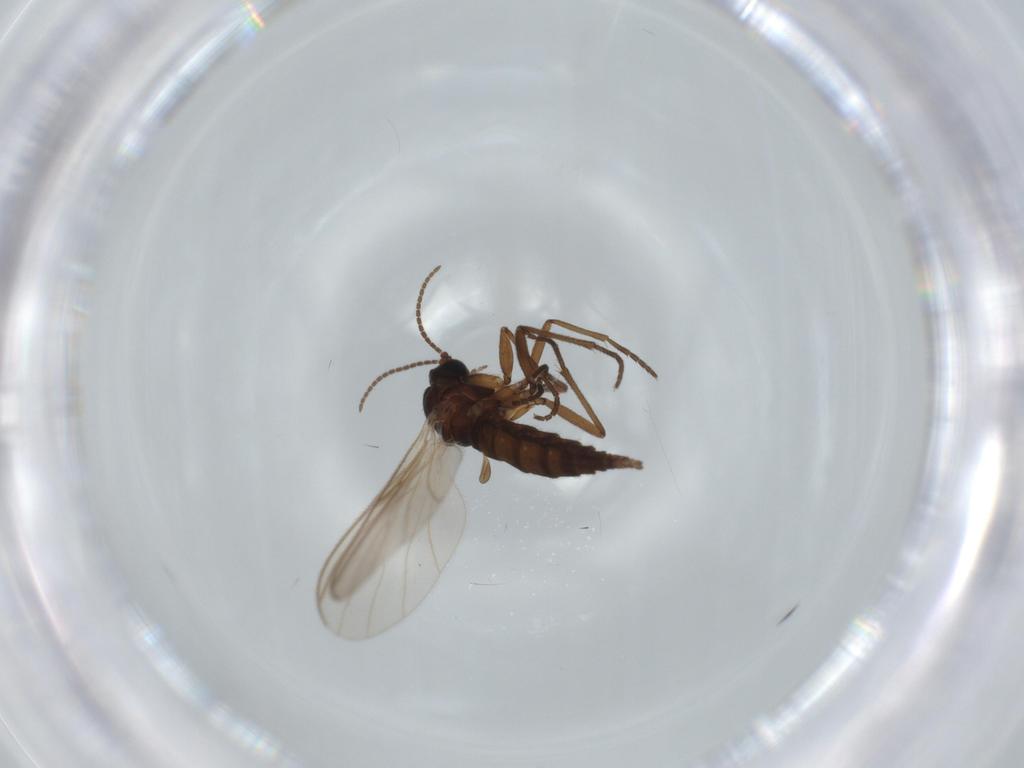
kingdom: Animalia
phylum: Arthropoda
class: Insecta
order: Diptera
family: Sciaridae
